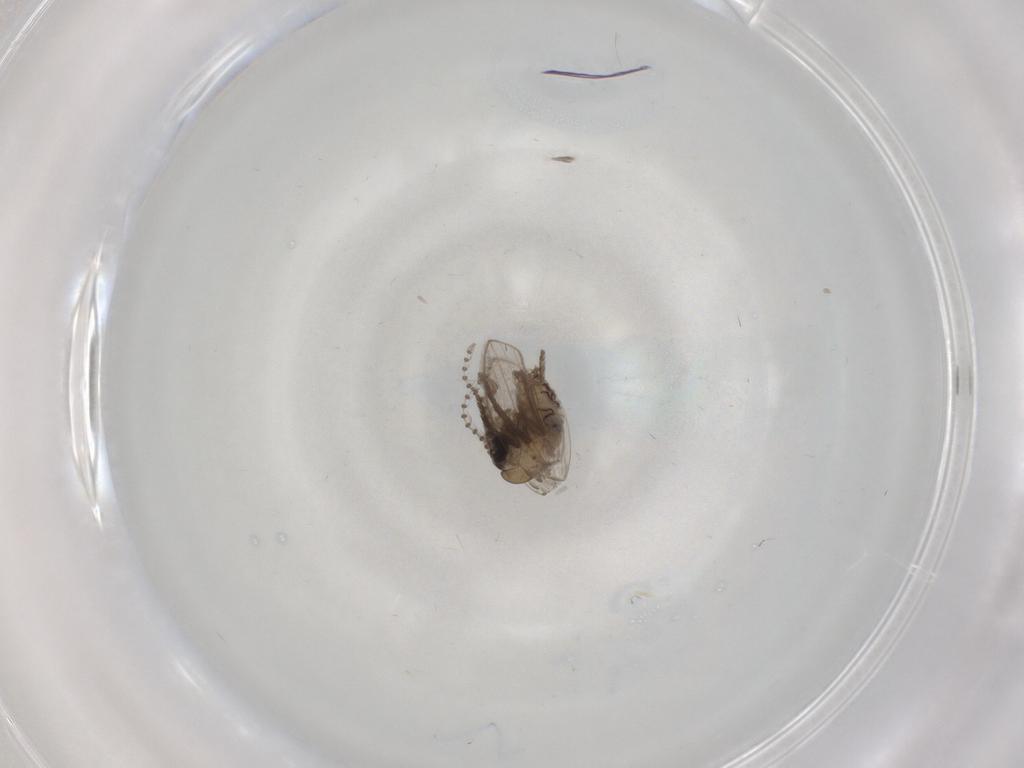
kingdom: Animalia
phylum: Arthropoda
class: Insecta
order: Diptera
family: Psychodidae
